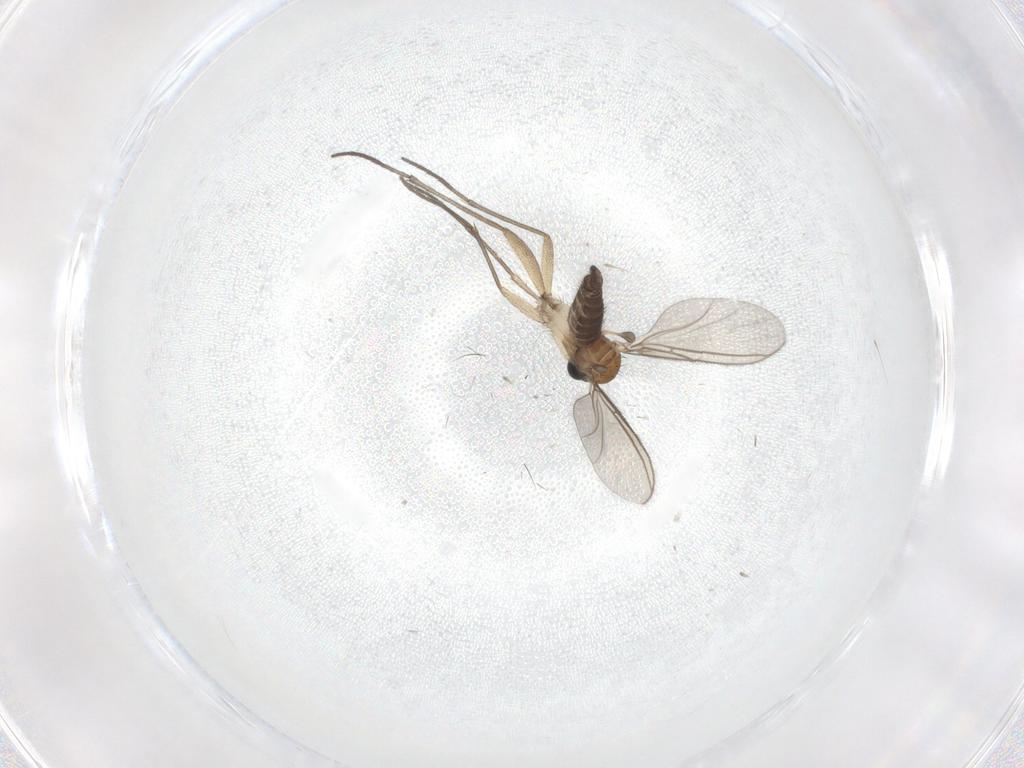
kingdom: Animalia
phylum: Arthropoda
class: Insecta
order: Diptera
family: Sciaridae
